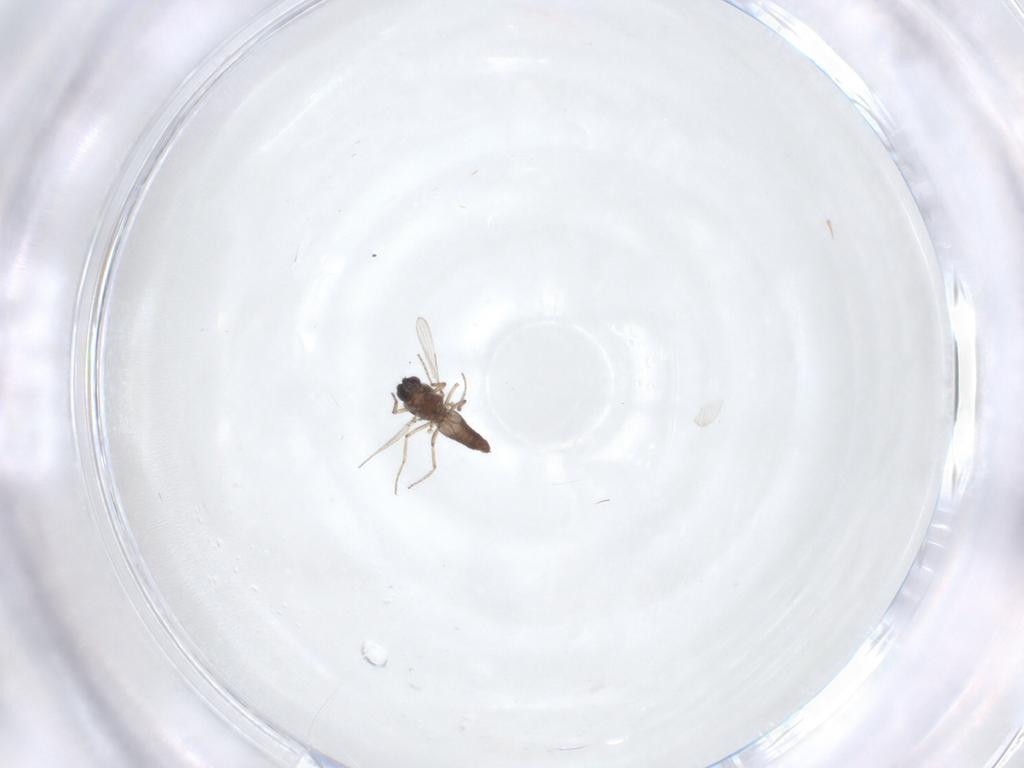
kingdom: Animalia
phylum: Arthropoda
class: Insecta
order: Diptera
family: Ceratopogonidae
